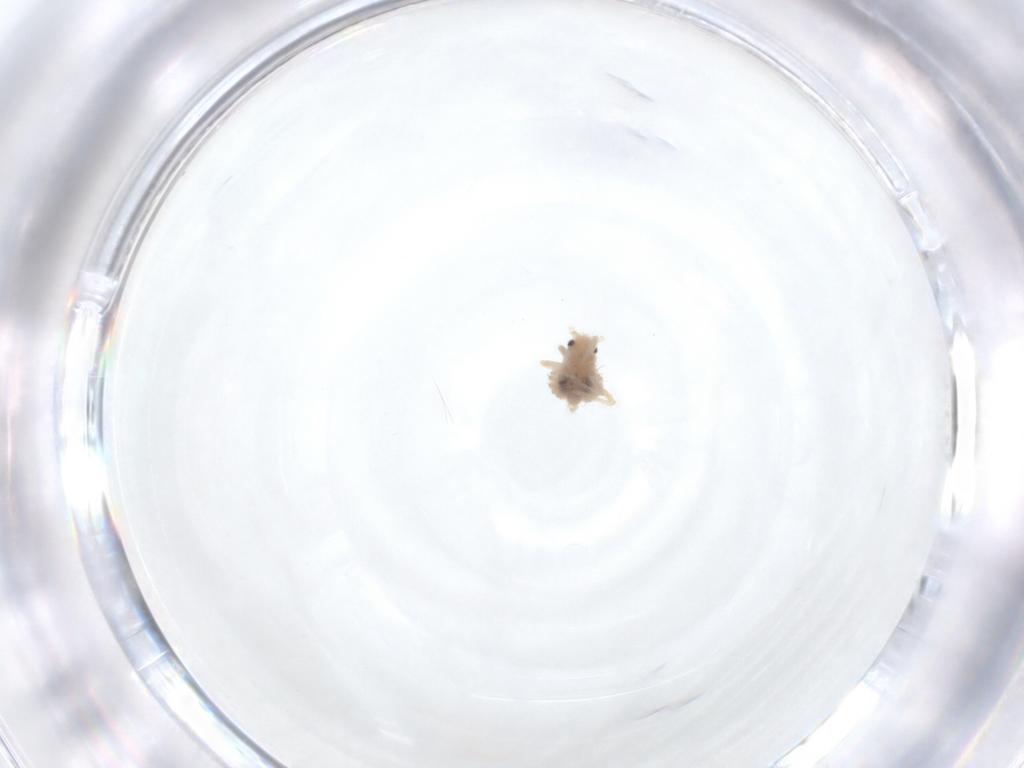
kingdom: Animalia
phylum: Arthropoda
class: Insecta
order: Hemiptera
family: Aphididae
